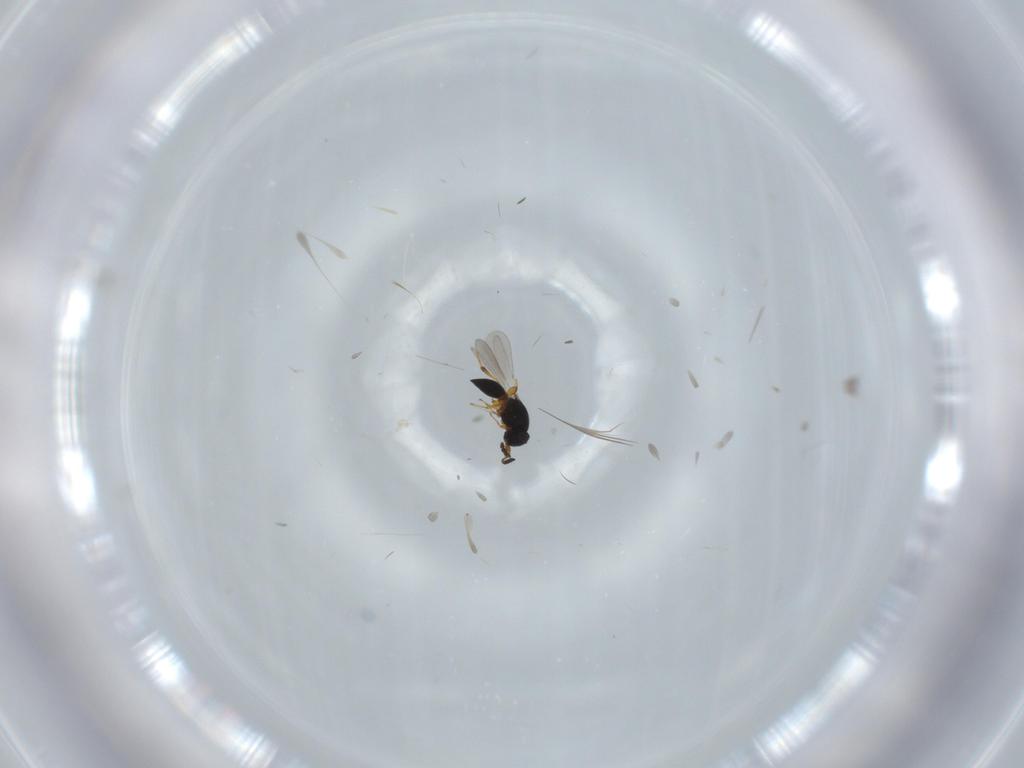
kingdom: Animalia
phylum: Arthropoda
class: Insecta
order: Hymenoptera
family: Platygastridae
